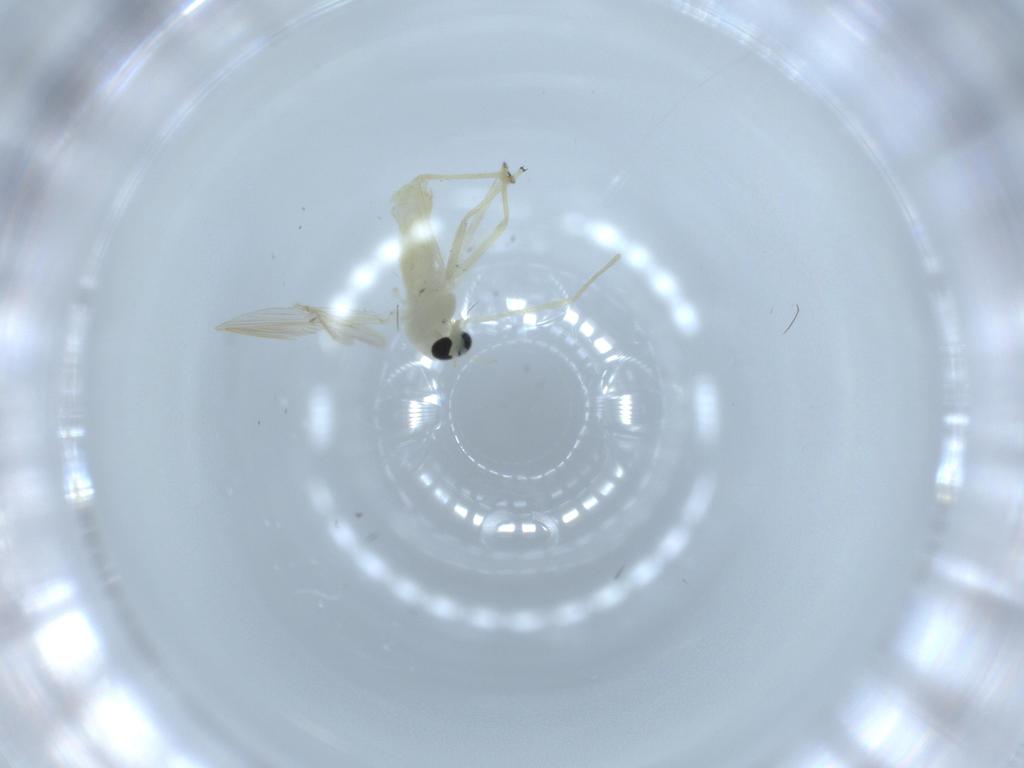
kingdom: Animalia
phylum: Arthropoda
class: Insecta
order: Diptera
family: Chironomidae
